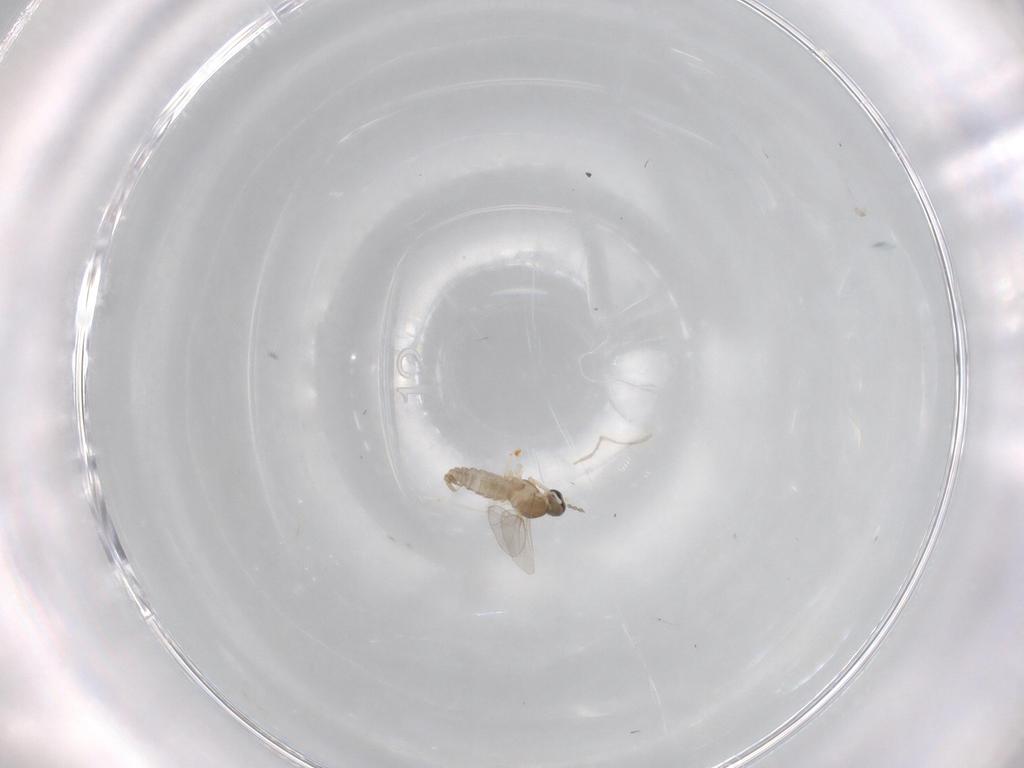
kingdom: Animalia
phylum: Arthropoda
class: Insecta
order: Diptera
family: Cecidomyiidae
